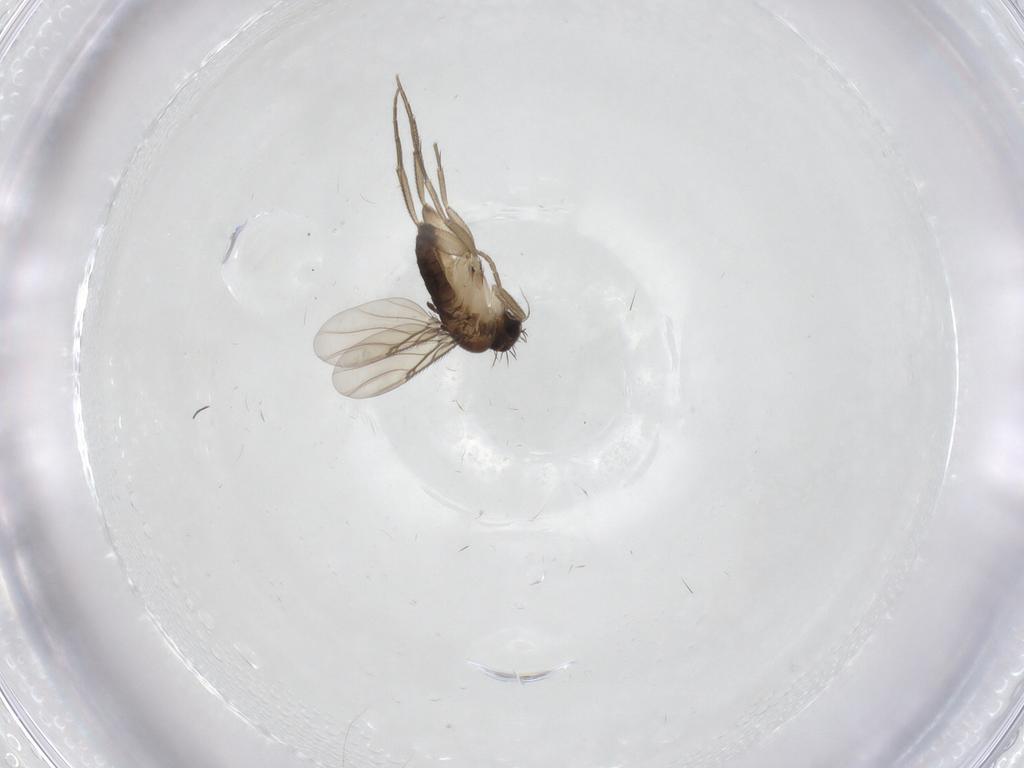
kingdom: Animalia
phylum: Arthropoda
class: Insecta
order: Diptera
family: Phoridae
